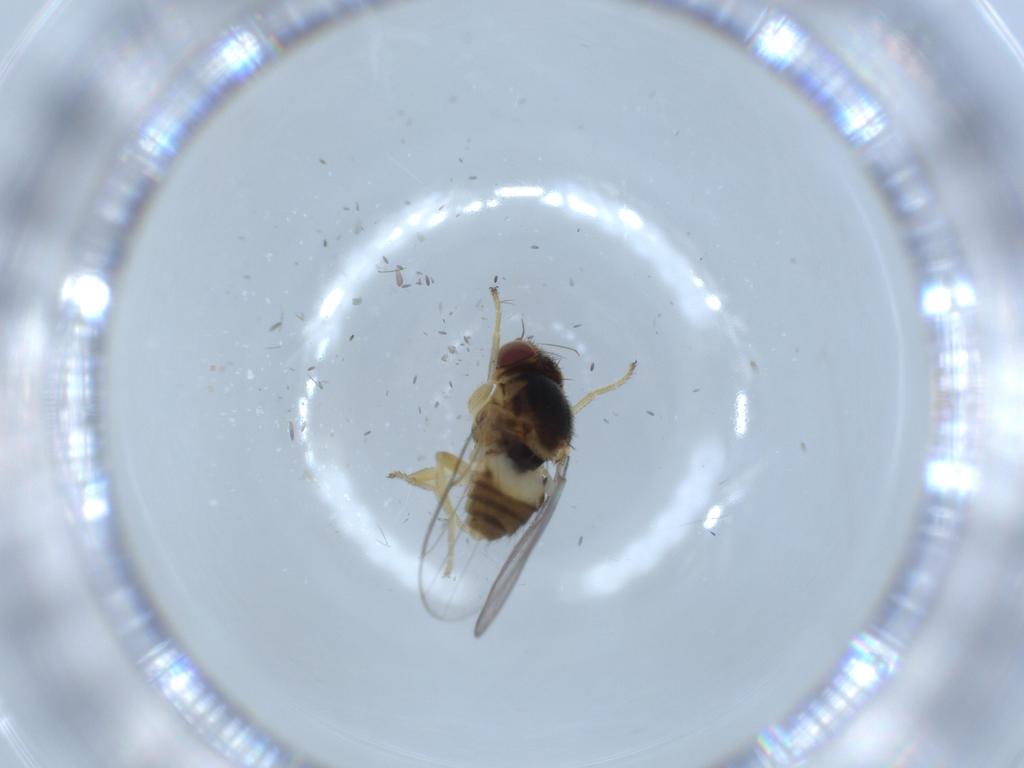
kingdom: Animalia
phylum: Arthropoda
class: Insecta
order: Diptera
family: Chloropidae
